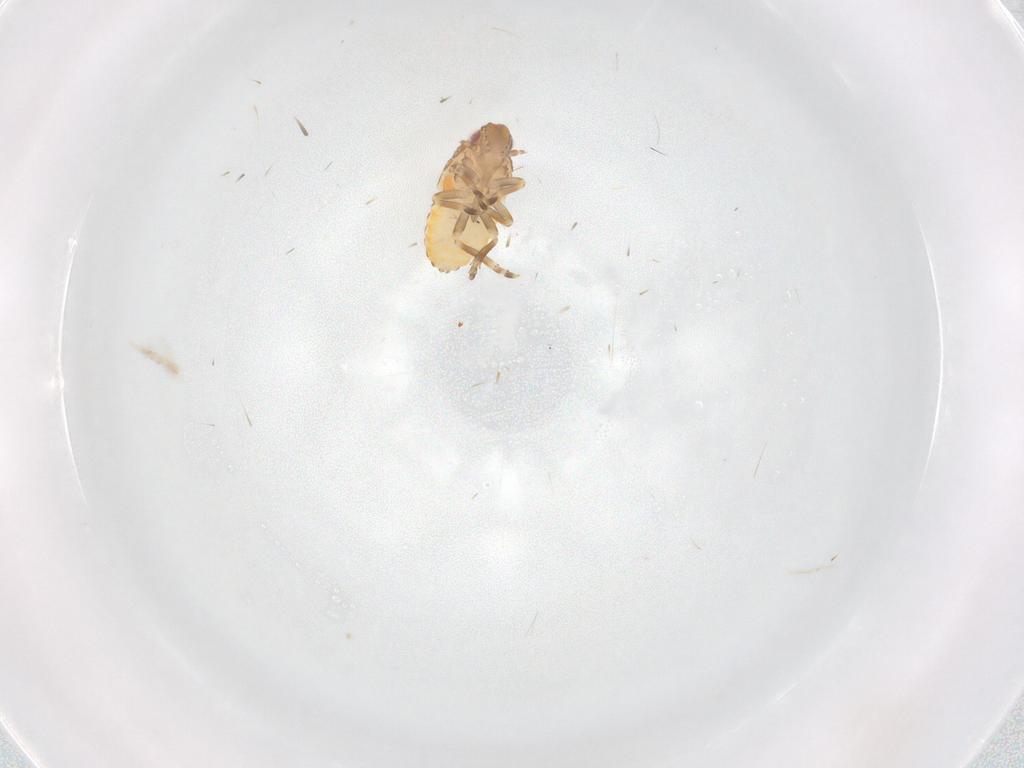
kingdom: Animalia
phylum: Arthropoda
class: Insecta
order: Hemiptera
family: Flatidae
